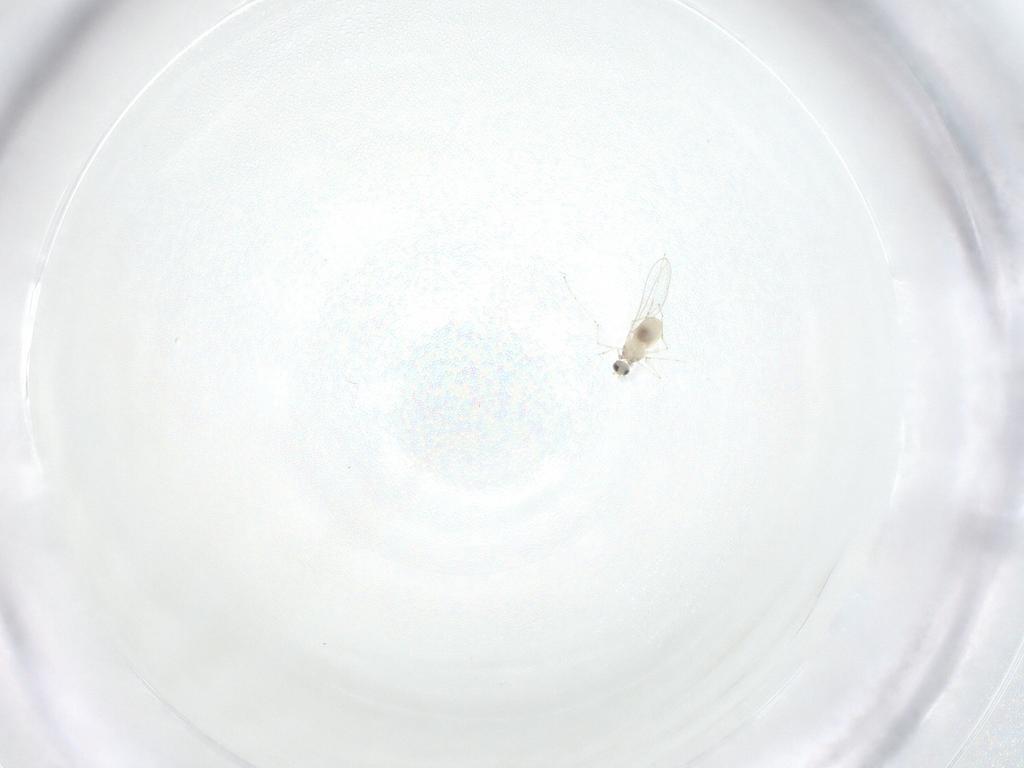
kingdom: Animalia
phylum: Arthropoda
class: Insecta
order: Diptera
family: Cecidomyiidae
